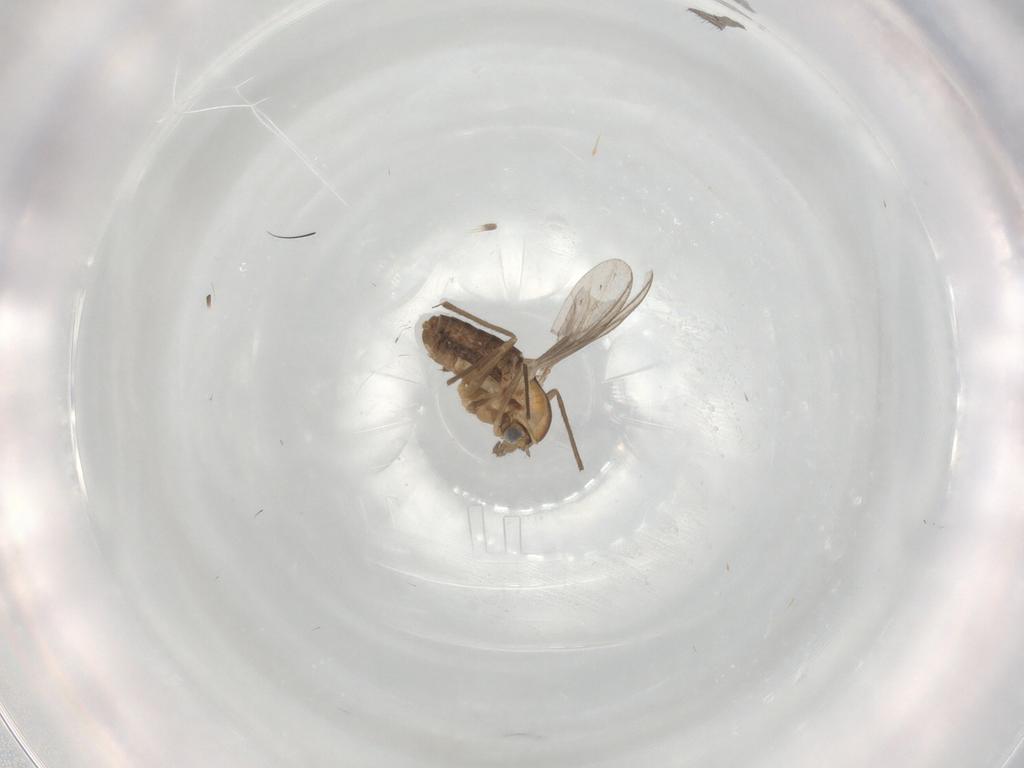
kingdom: Animalia
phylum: Arthropoda
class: Insecta
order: Diptera
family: Chironomidae
